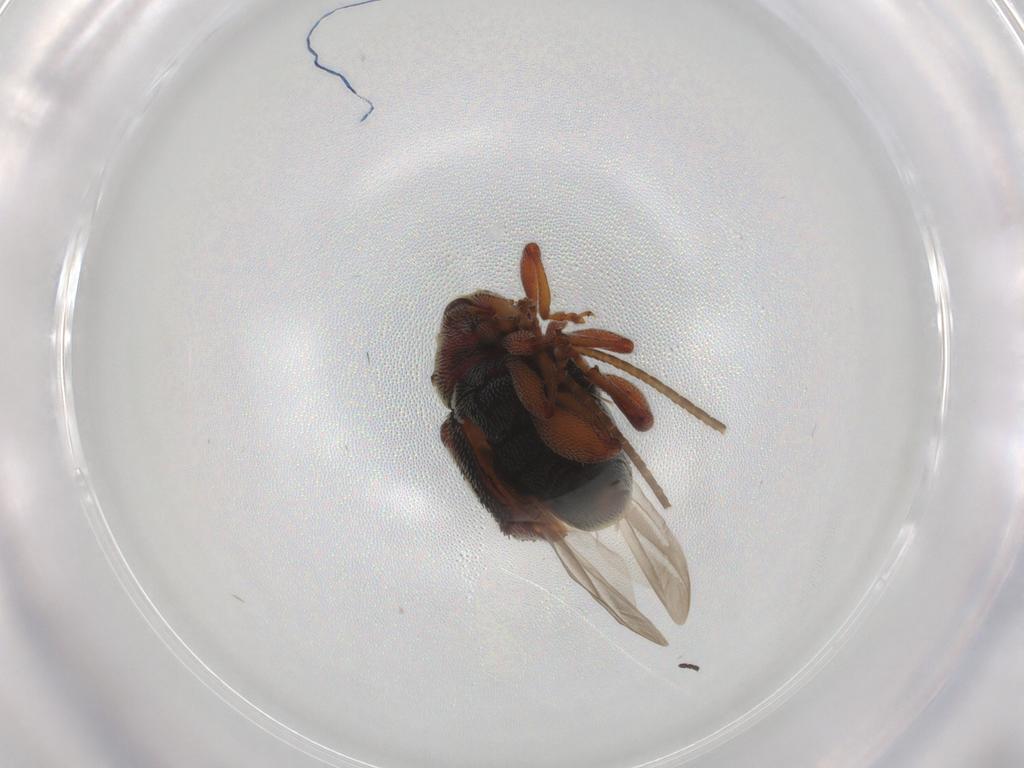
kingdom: Animalia
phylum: Arthropoda
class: Insecta
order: Coleoptera
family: Curculionidae
